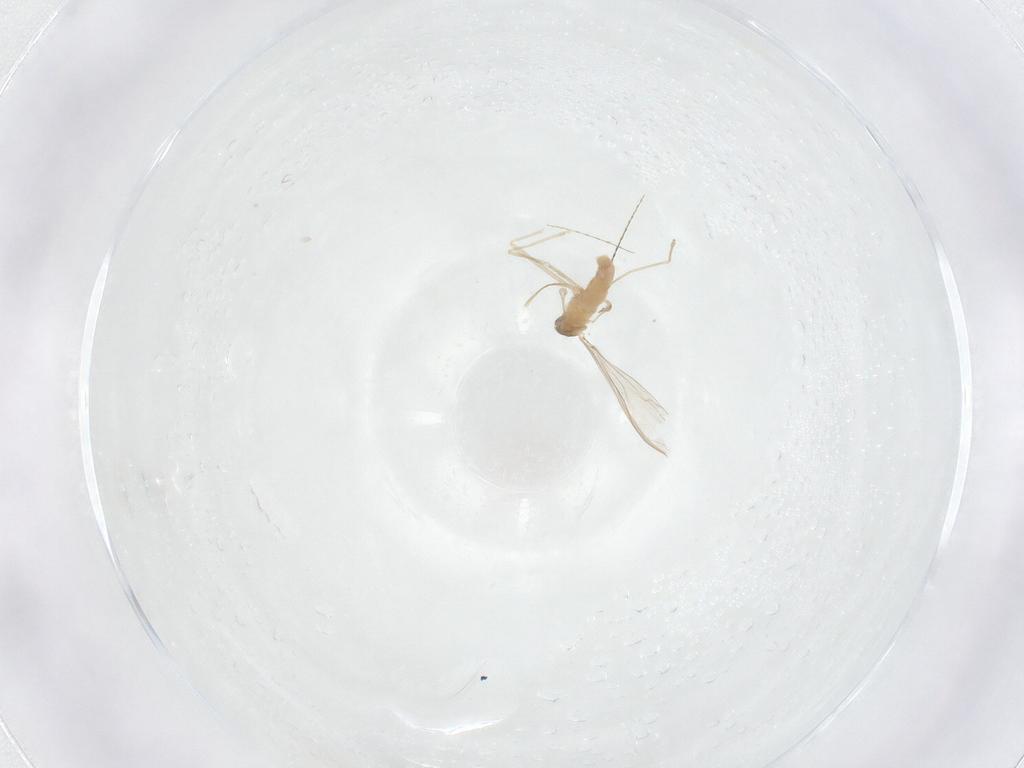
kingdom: Animalia
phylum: Arthropoda
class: Insecta
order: Diptera
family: Cecidomyiidae
